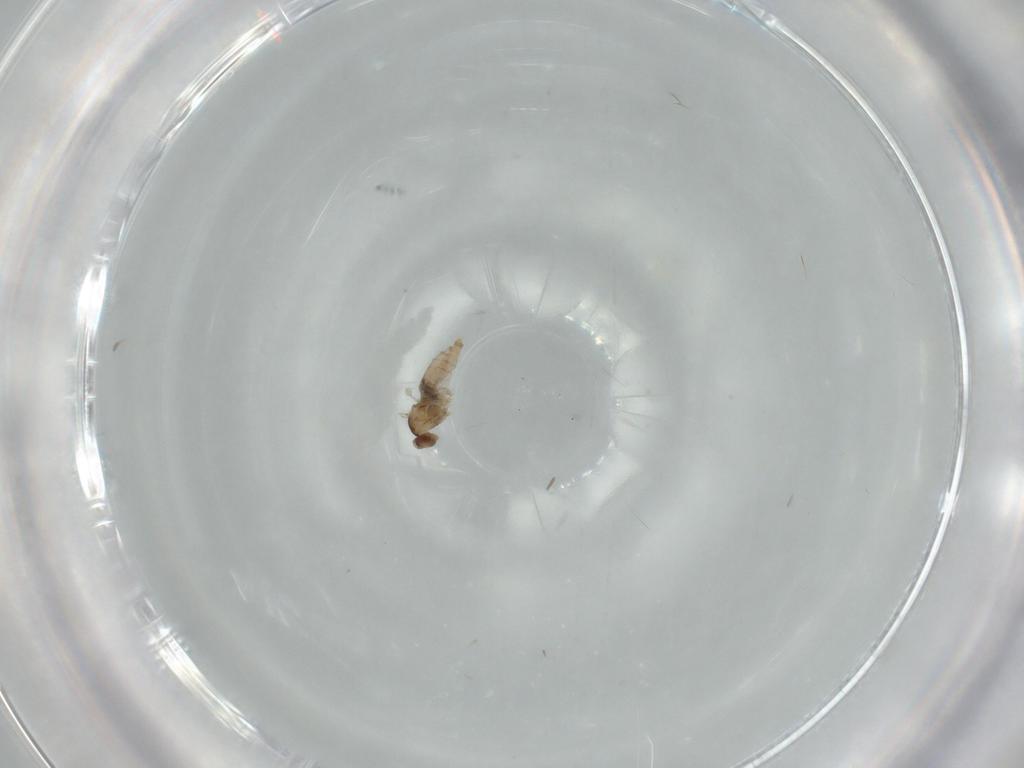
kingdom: Animalia
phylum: Arthropoda
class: Insecta
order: Diptera
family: Cecidomyiidae
